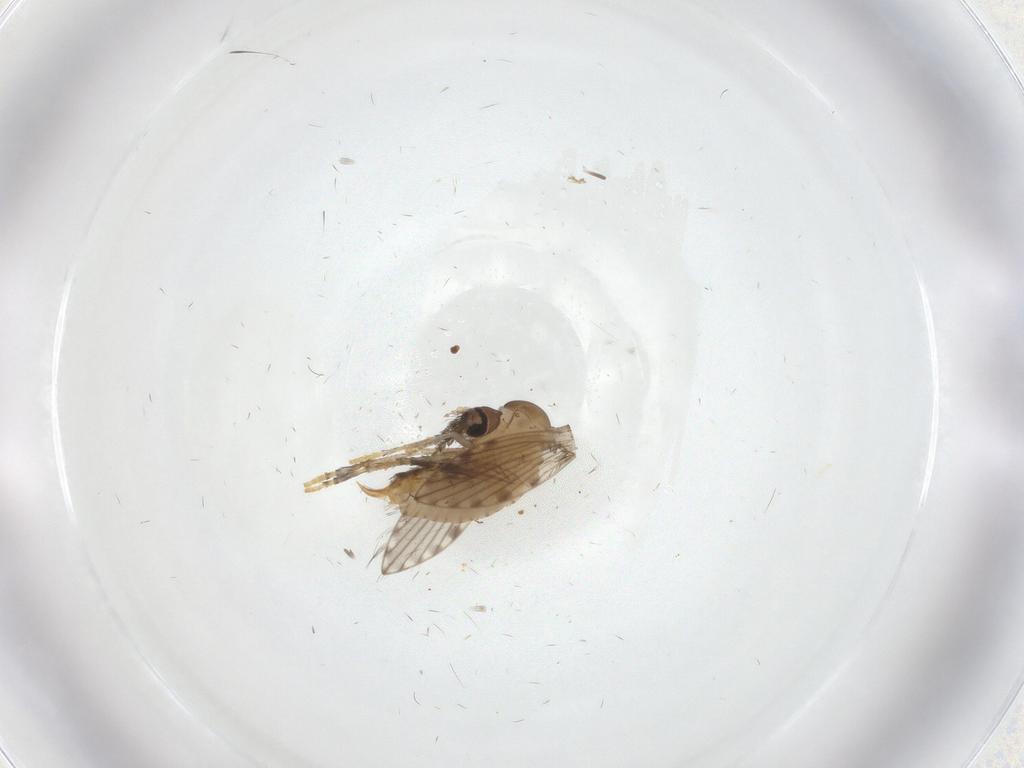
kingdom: Animalia
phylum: Arthropoda
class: Insecta
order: Diptera
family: Psychodidae
